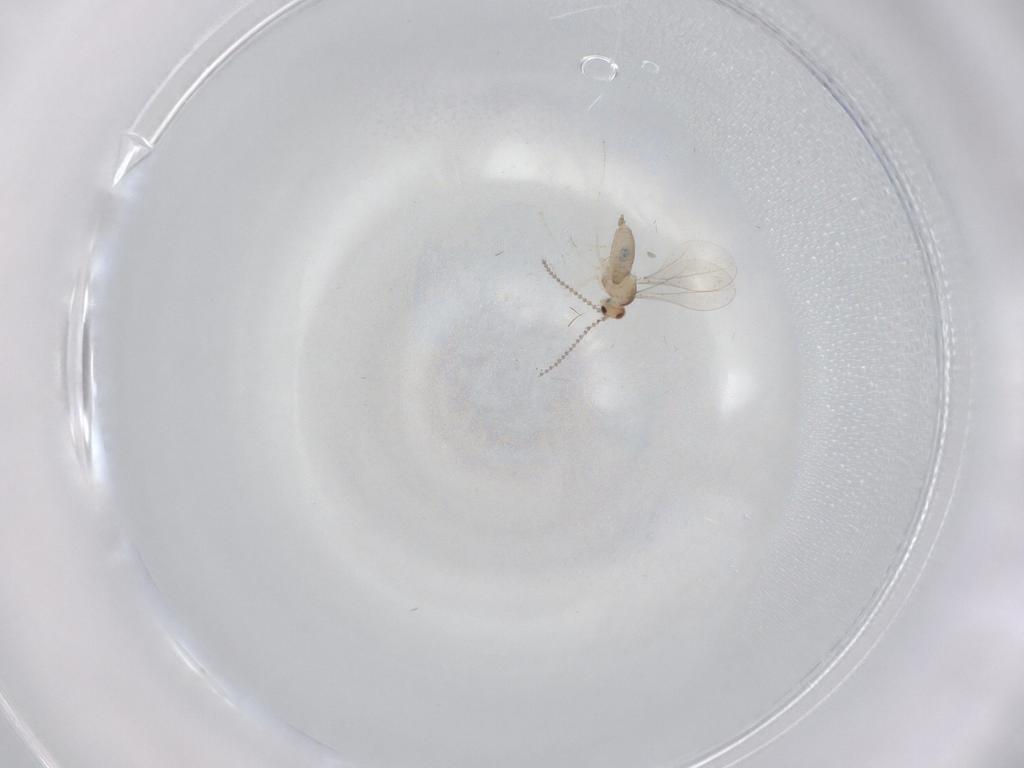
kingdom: Animalia
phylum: Arthropoda
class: Insecta
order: Diptera
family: Cecidomyiidae
